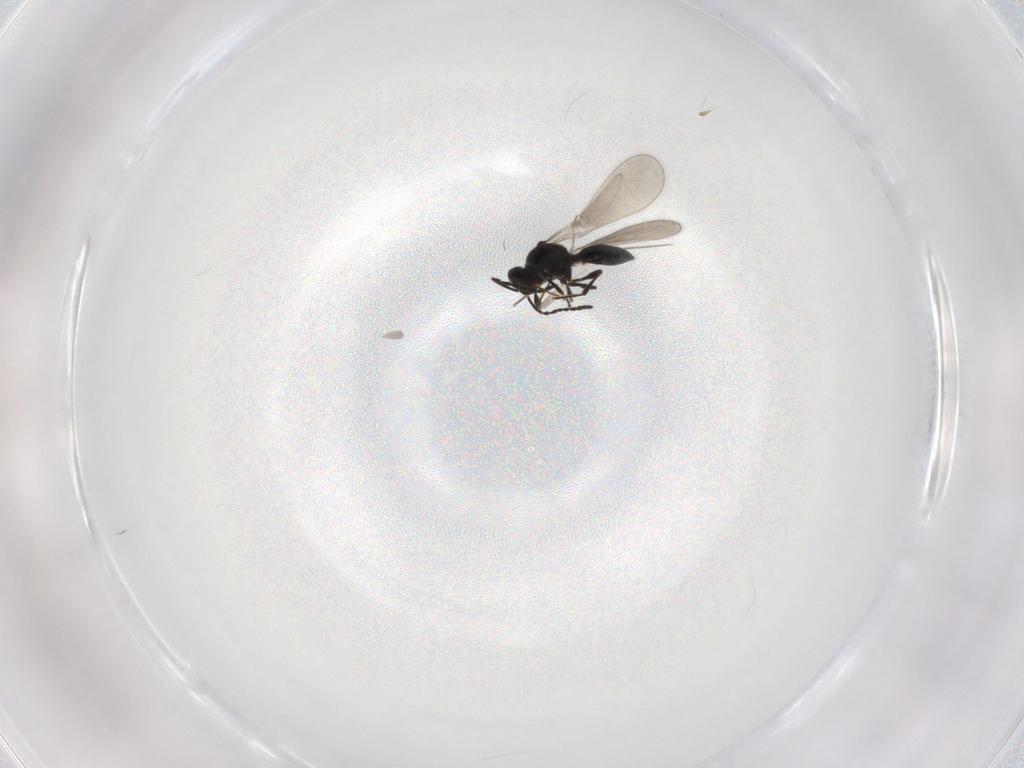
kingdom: Animalia
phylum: Arthropoda
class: Insecta
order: Hymenoptera
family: Platygastridae
